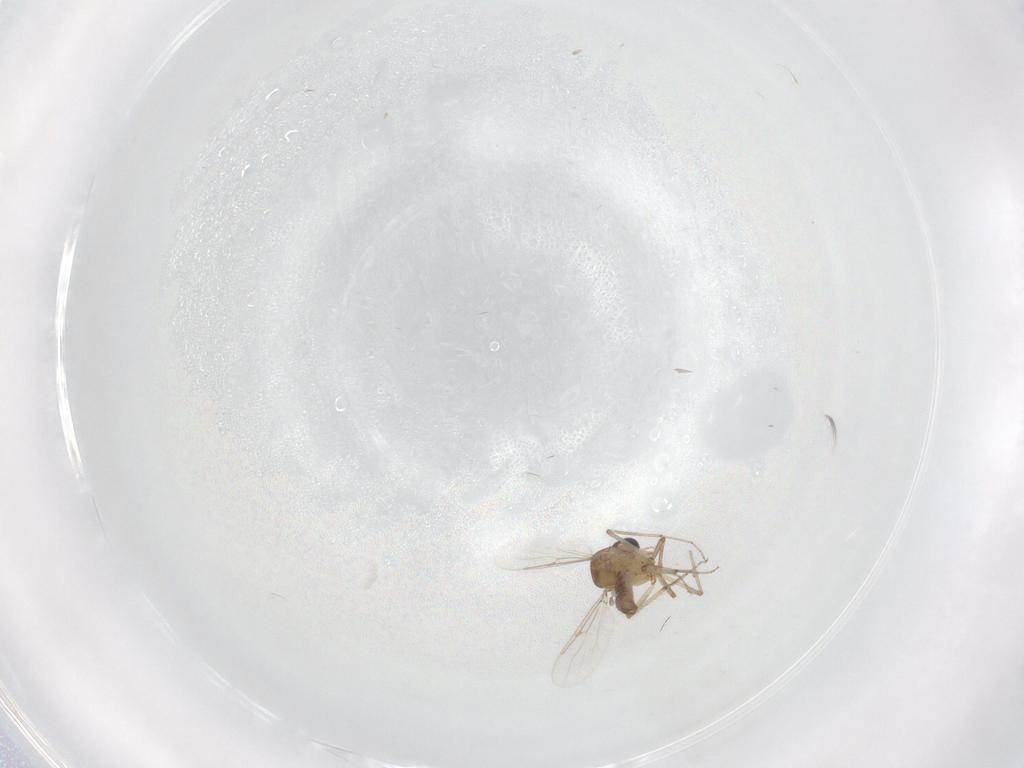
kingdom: Animalia
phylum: Arthropoda
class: Insecta
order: Diptera
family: Ceratopogonidae
